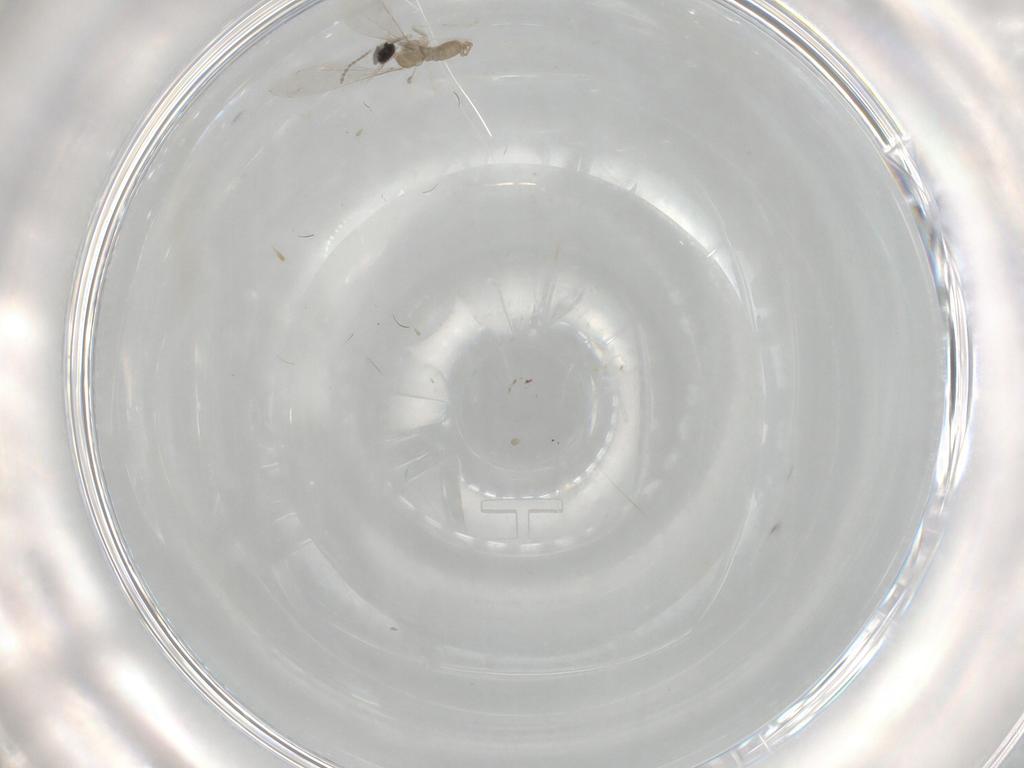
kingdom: Animalia
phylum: Arthropoda
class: Insecta
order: Diptera
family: Cecidomyiidae
